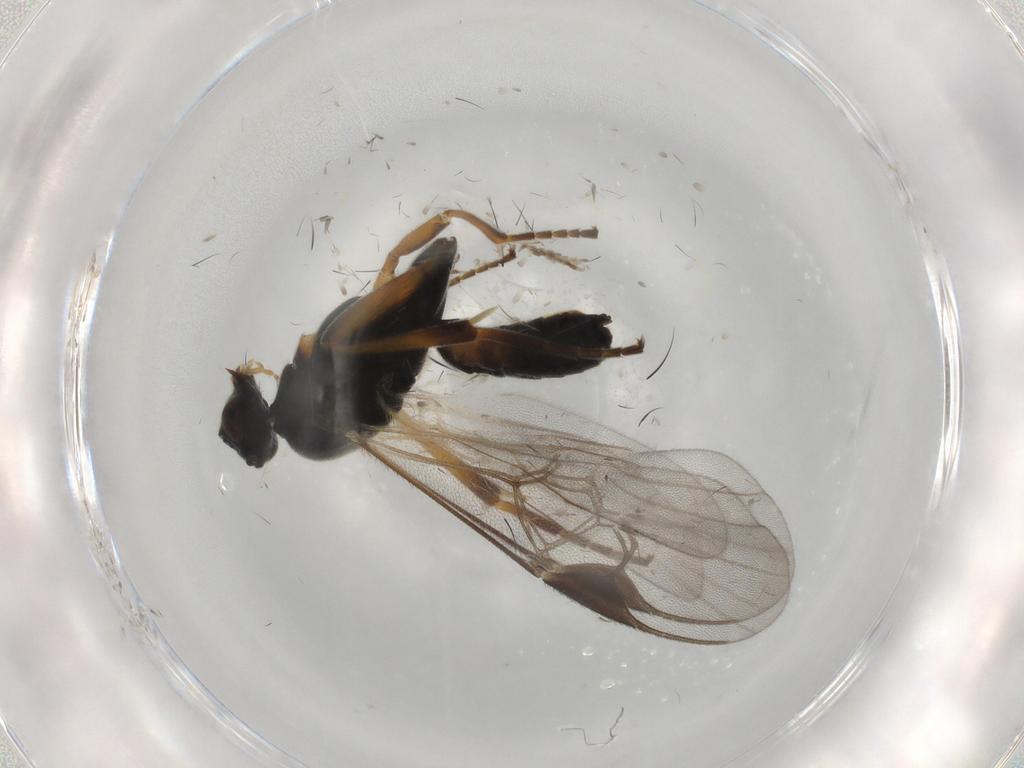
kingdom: Animalia
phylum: Arthropoda
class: Insecta
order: Hymenoptera
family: Braconidae
